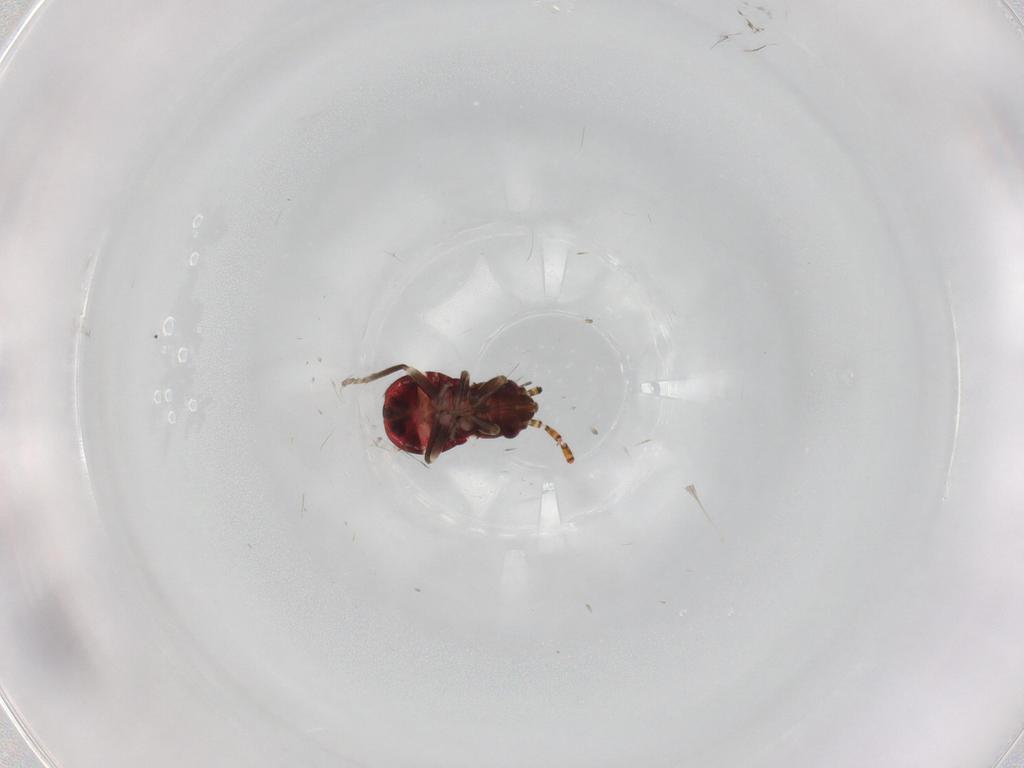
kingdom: Animalia
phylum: Arthropoda
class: Insecta
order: Hemiptera
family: Rhyparochromidae
